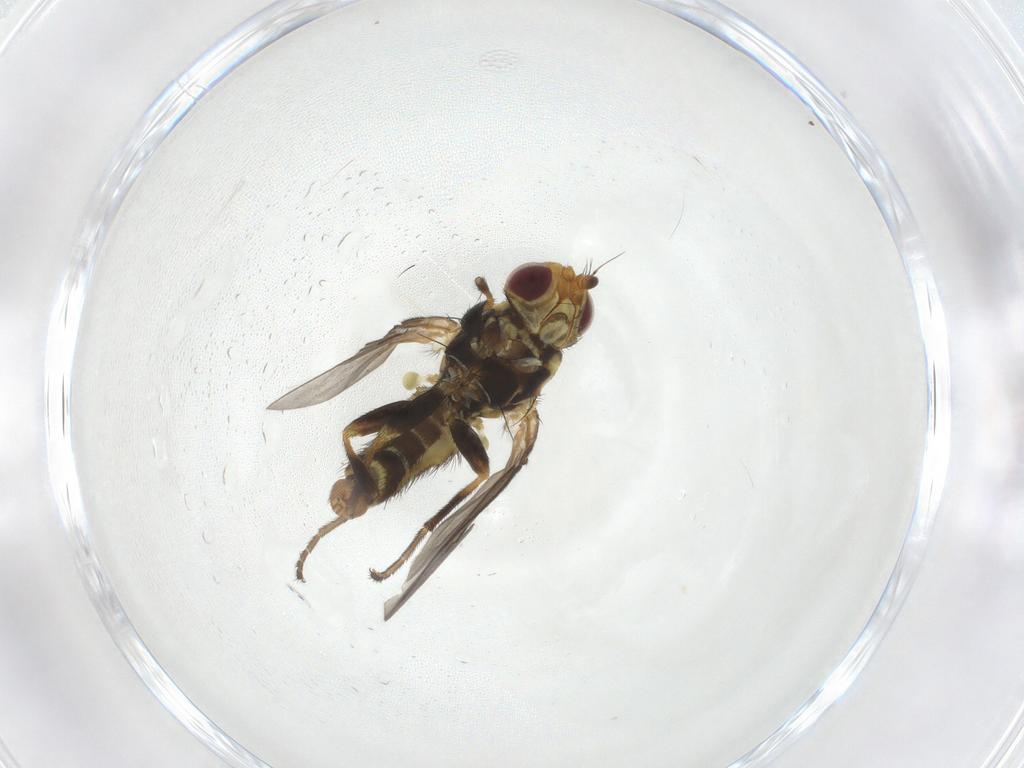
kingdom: Animalia
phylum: Arthropoda
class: Insecta
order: Diptera
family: Agromyzidae
